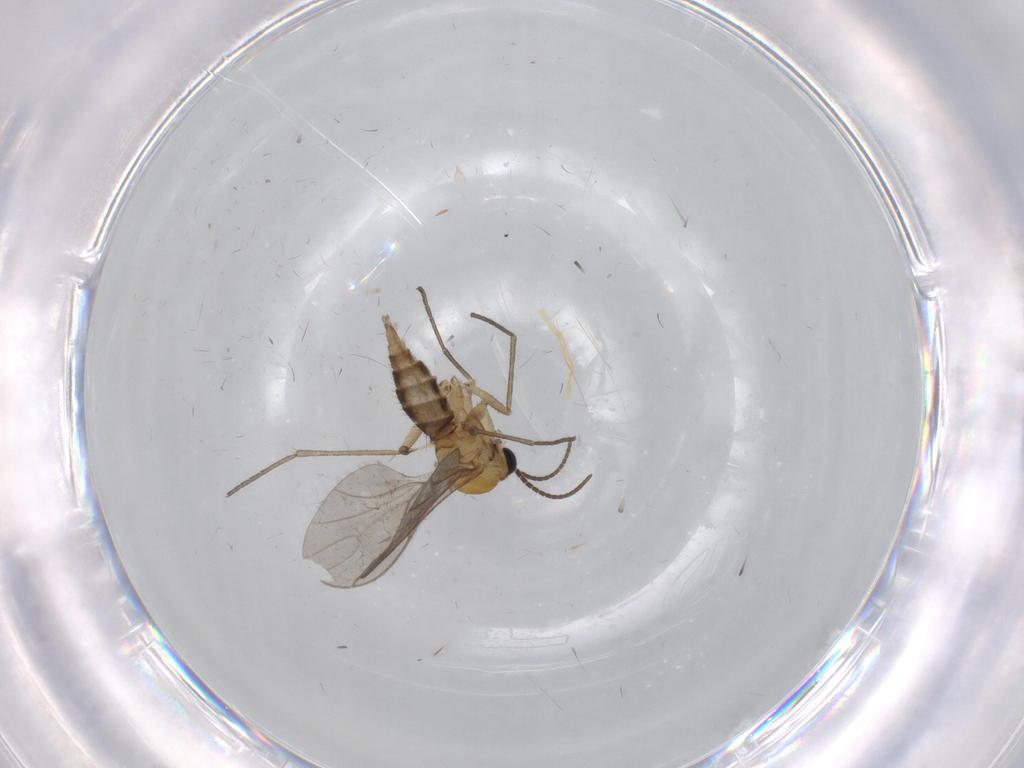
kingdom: Animalia
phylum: Arthropoda
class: Insecta
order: Diptera
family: Sciaridae
